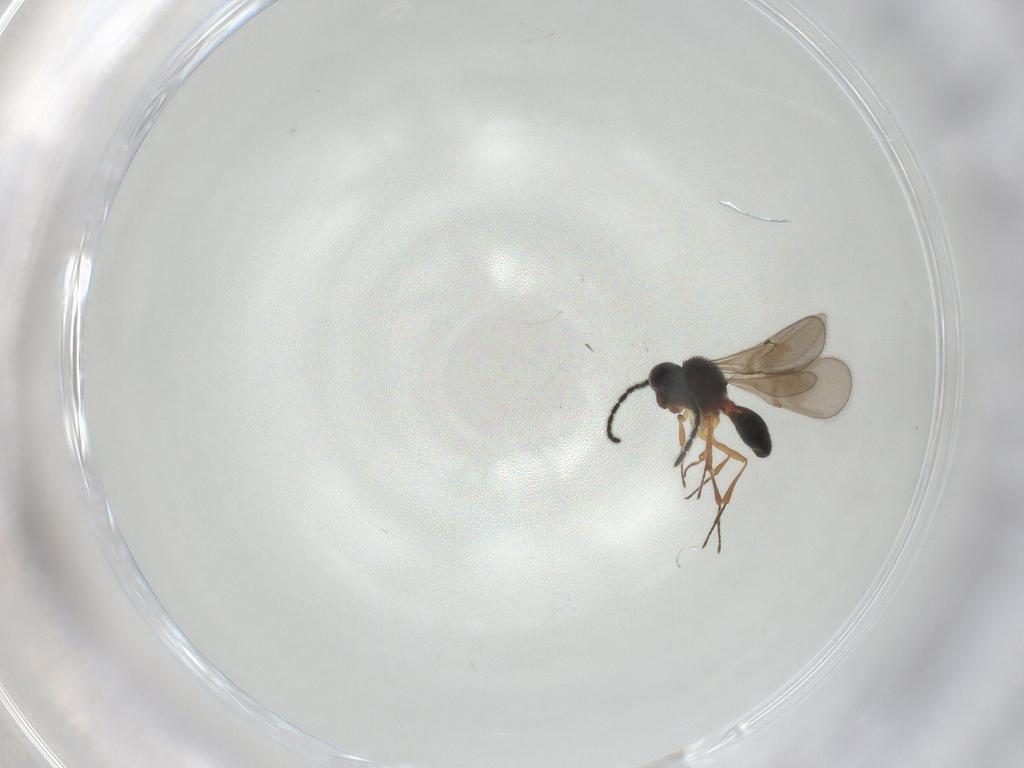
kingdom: Animalia
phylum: Arthropoda
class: Insecta
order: Hymenoptera
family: Scelionidae
